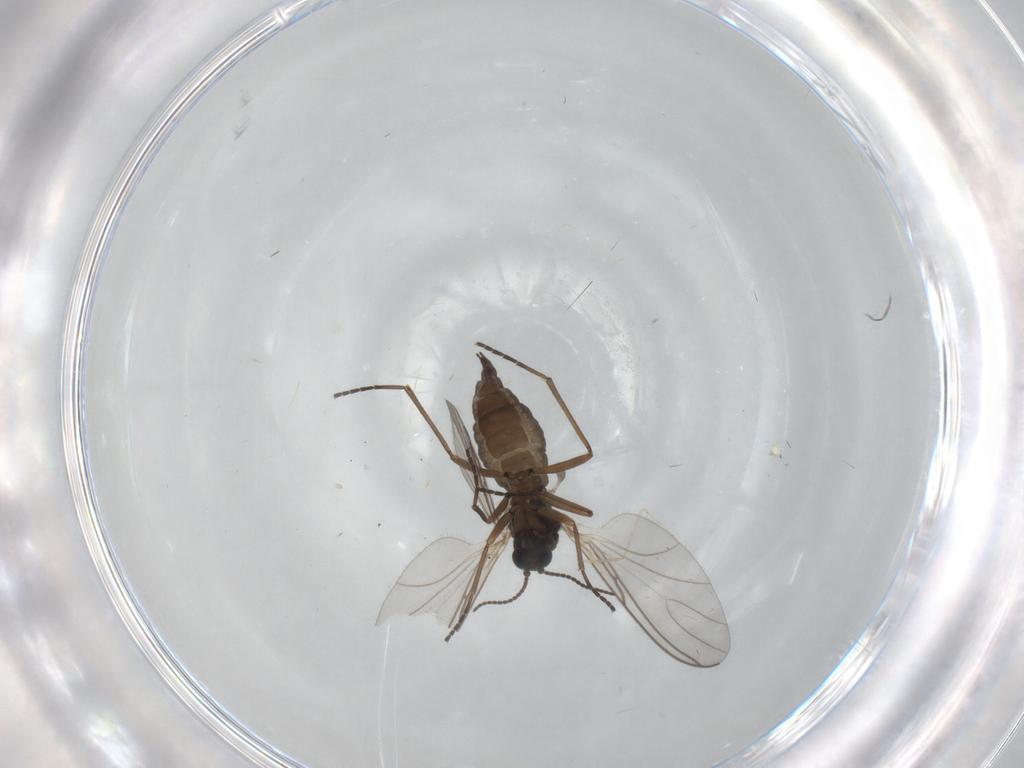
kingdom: Animalia
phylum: Arthropoda
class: Insecta
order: Diptera
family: Sciaridae
